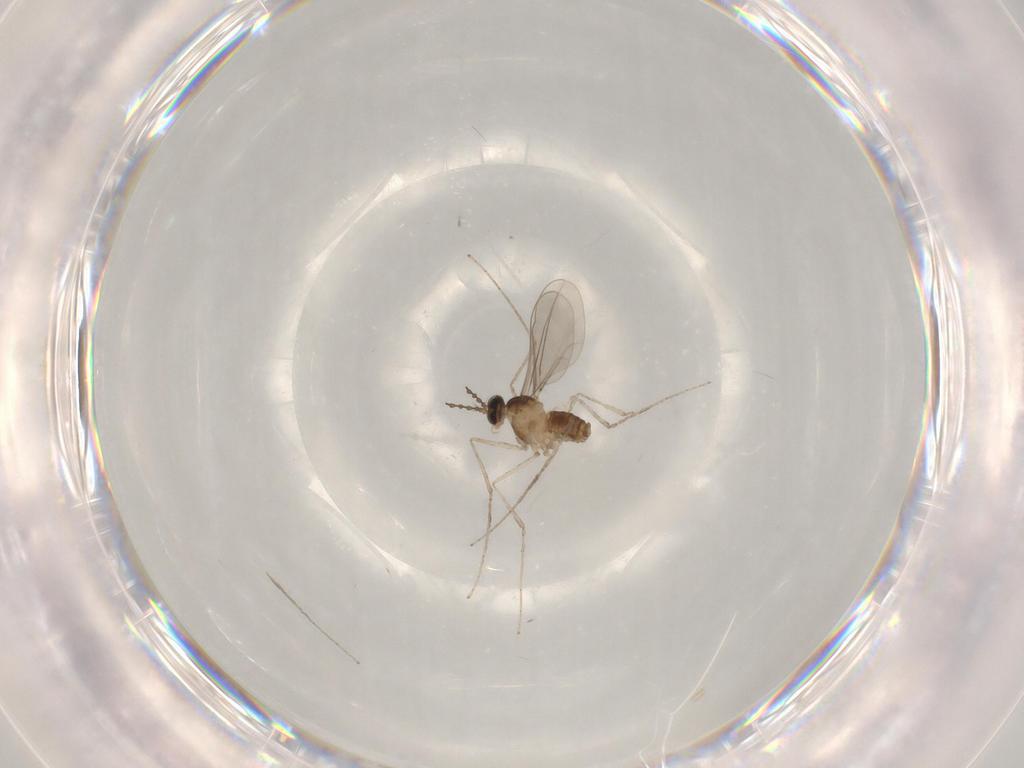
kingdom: Animalia
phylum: Arthropoda
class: Insecta
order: Diptera
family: Cecidomyiidae
